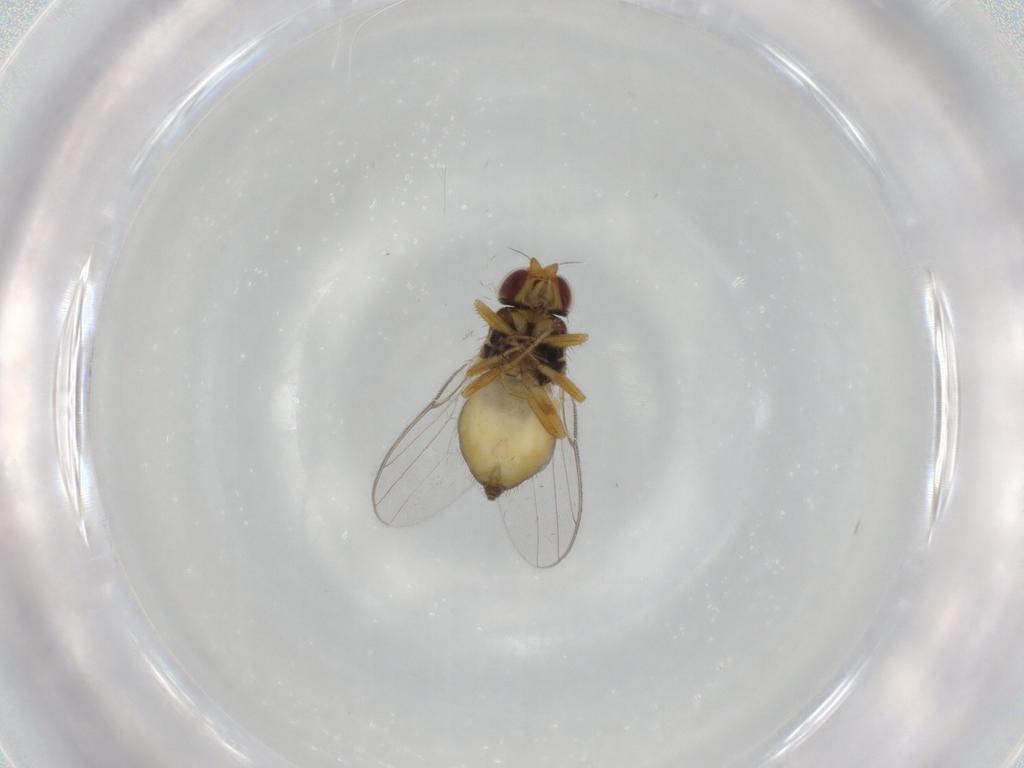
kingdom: Animalia
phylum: Arthropoda
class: Insecta
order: Diptera
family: Chloropidae
